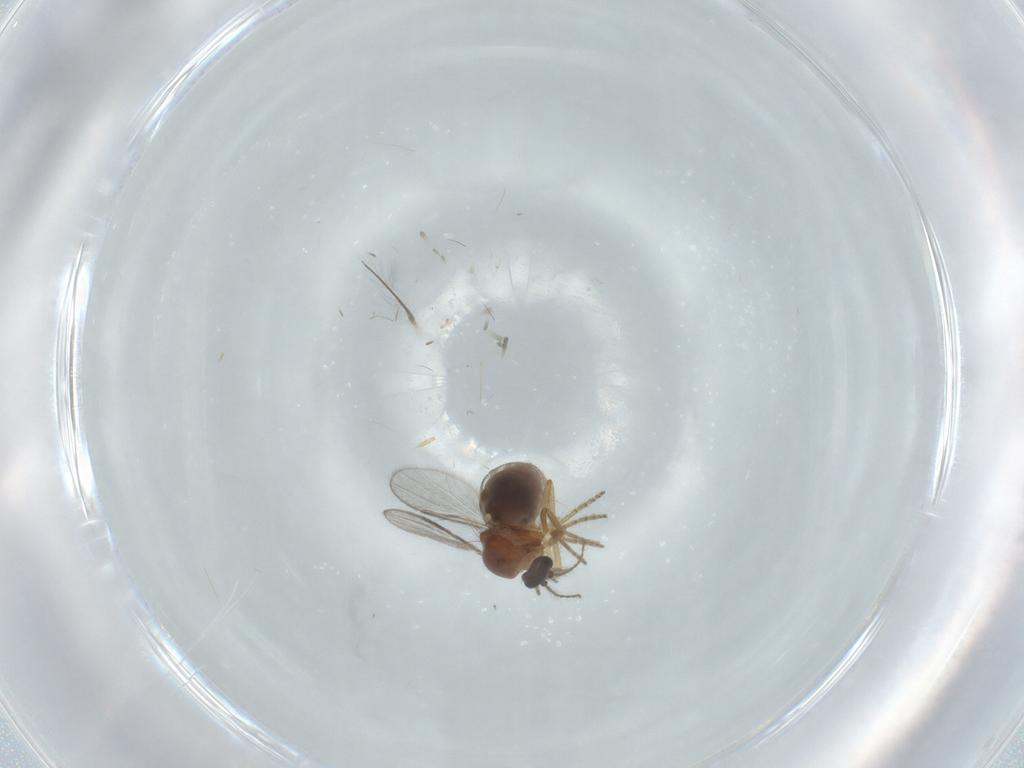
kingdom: Animalia
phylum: Arthropoda
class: Insecta
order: Diptera
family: Ceratopogonidae
